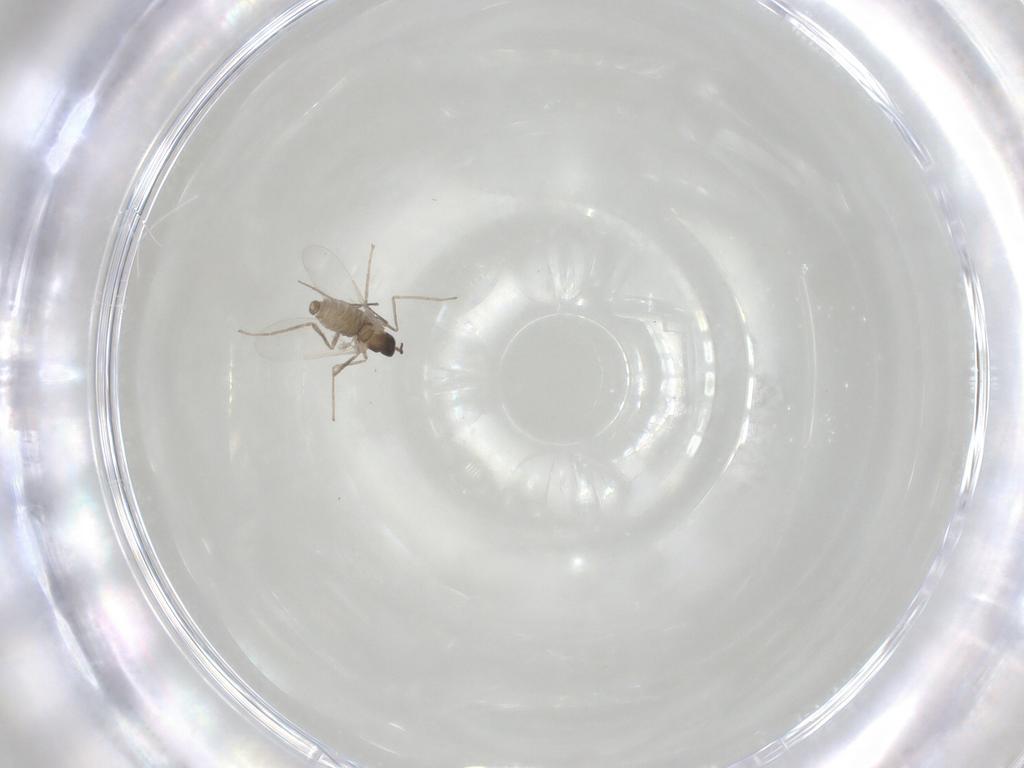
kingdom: Animalia
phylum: Arthropoda
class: Insecta
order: Diptera
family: Cecidomyiidae
